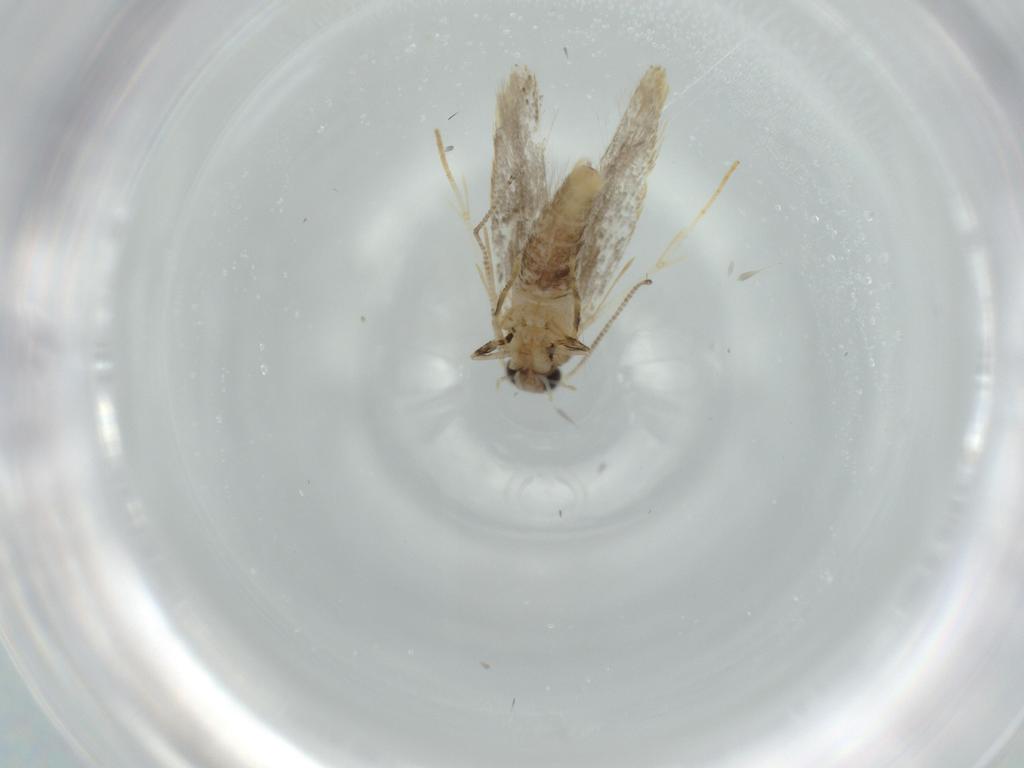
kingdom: Animalia
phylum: Arthropoda
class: Insecta
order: Lepidoptera
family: Tineidae
